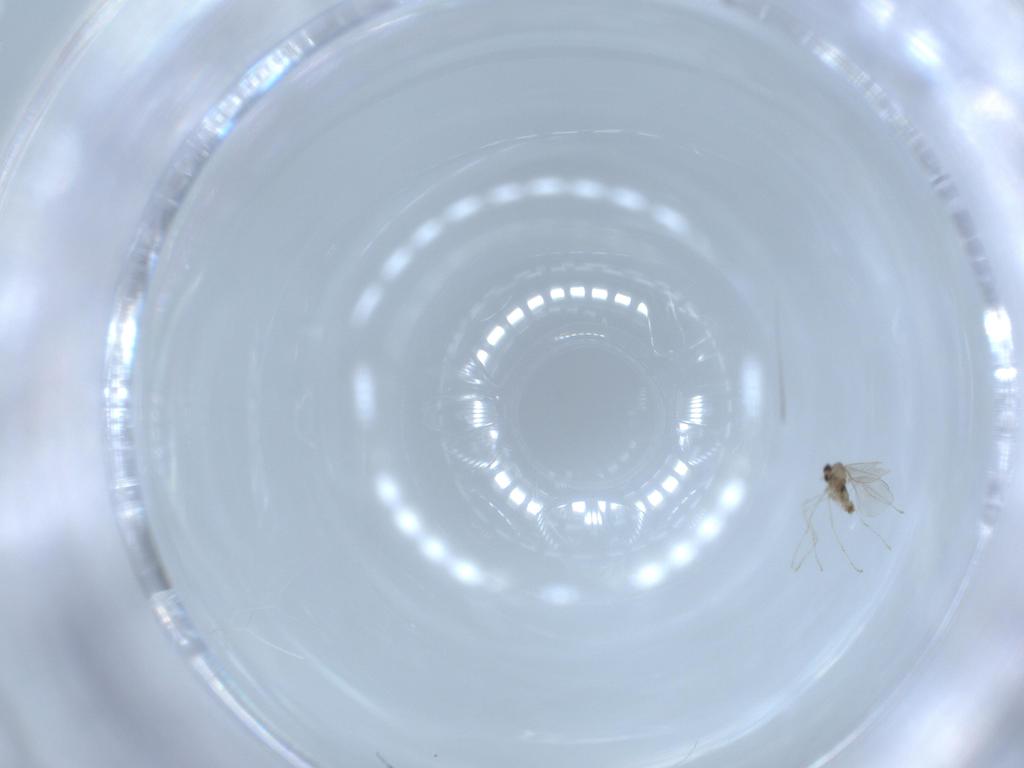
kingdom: Animalia
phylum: Arthropoda
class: Insecta
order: Diptera
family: Cecidomyiidae
